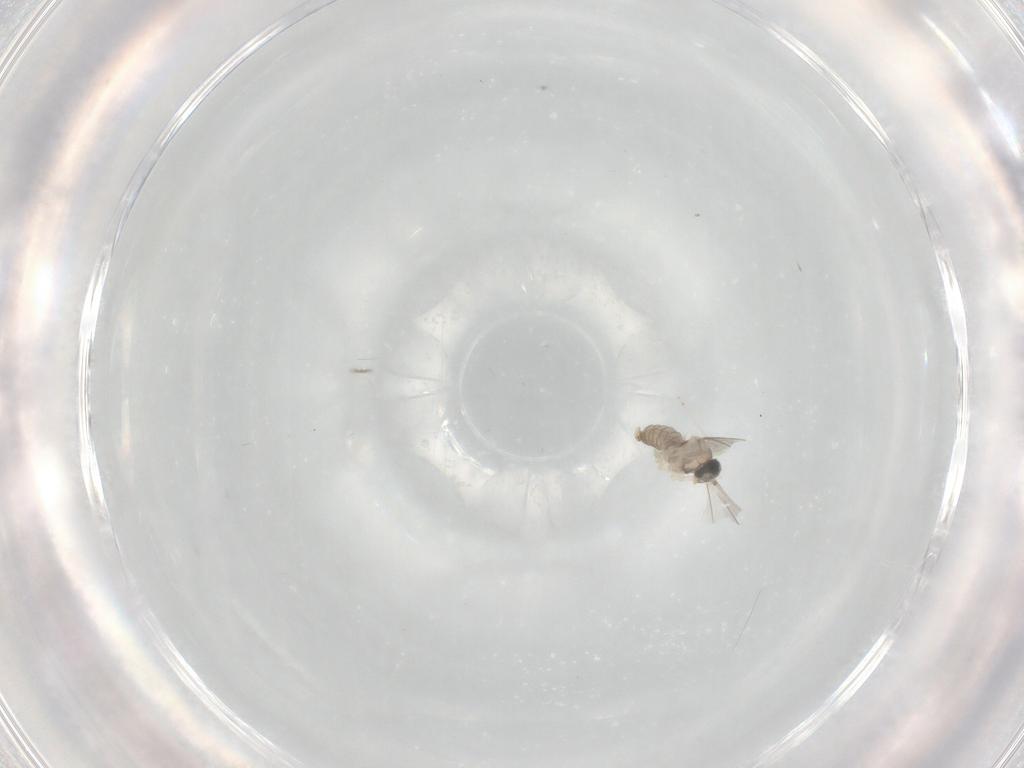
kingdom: Animalia
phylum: Arthropoda
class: Insecta
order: Diptera
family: Cecidomyiidae
